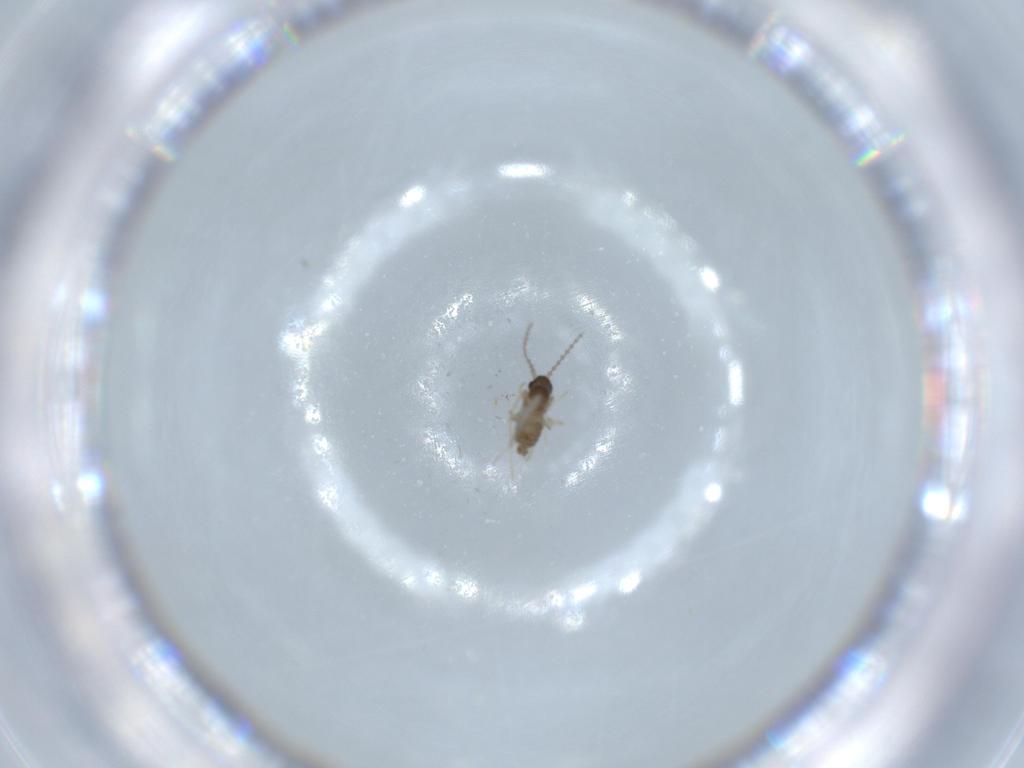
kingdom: Animalia
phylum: Arthropoda
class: Insecta
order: Diptera
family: Cecidomyiidae
